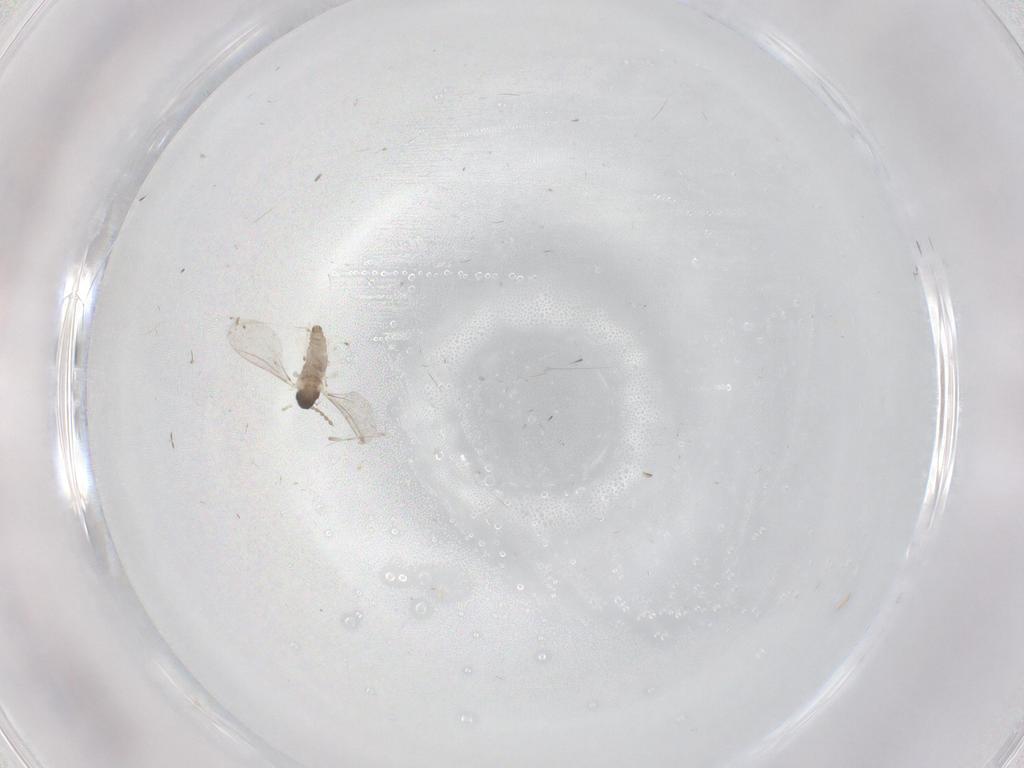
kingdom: Animalia
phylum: Arthropoda
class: Insecta
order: Diptera
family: Cecidomyiidae
